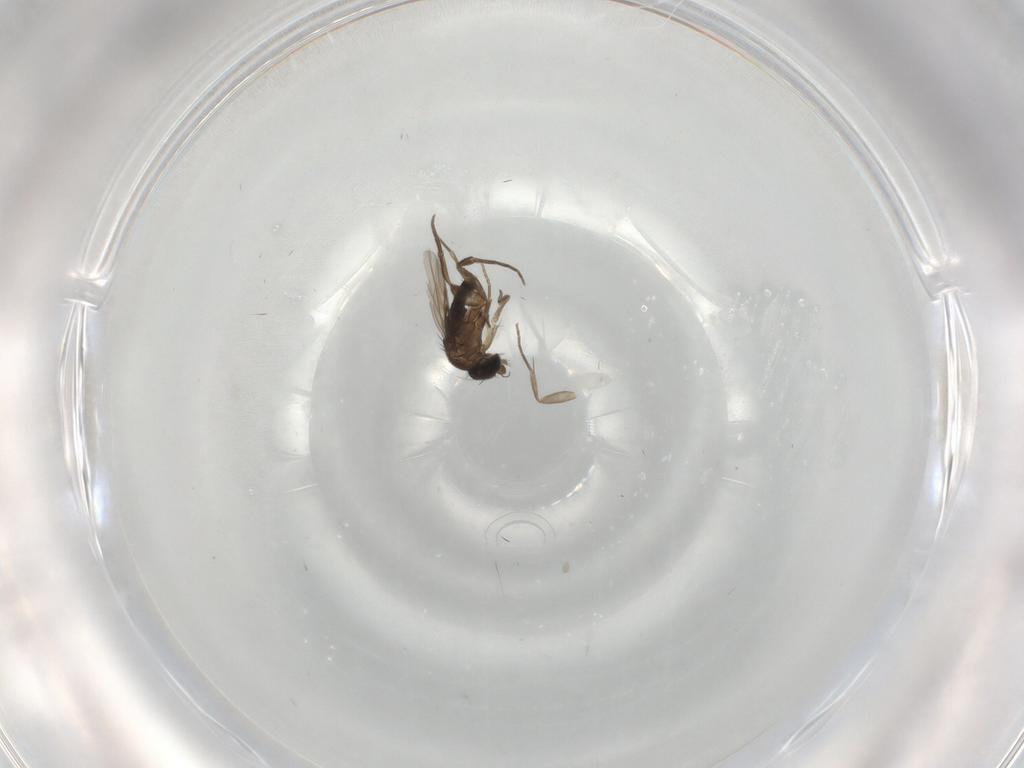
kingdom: Animalia
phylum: Arthropoda
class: Insecta
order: Diptera
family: Phoridae
